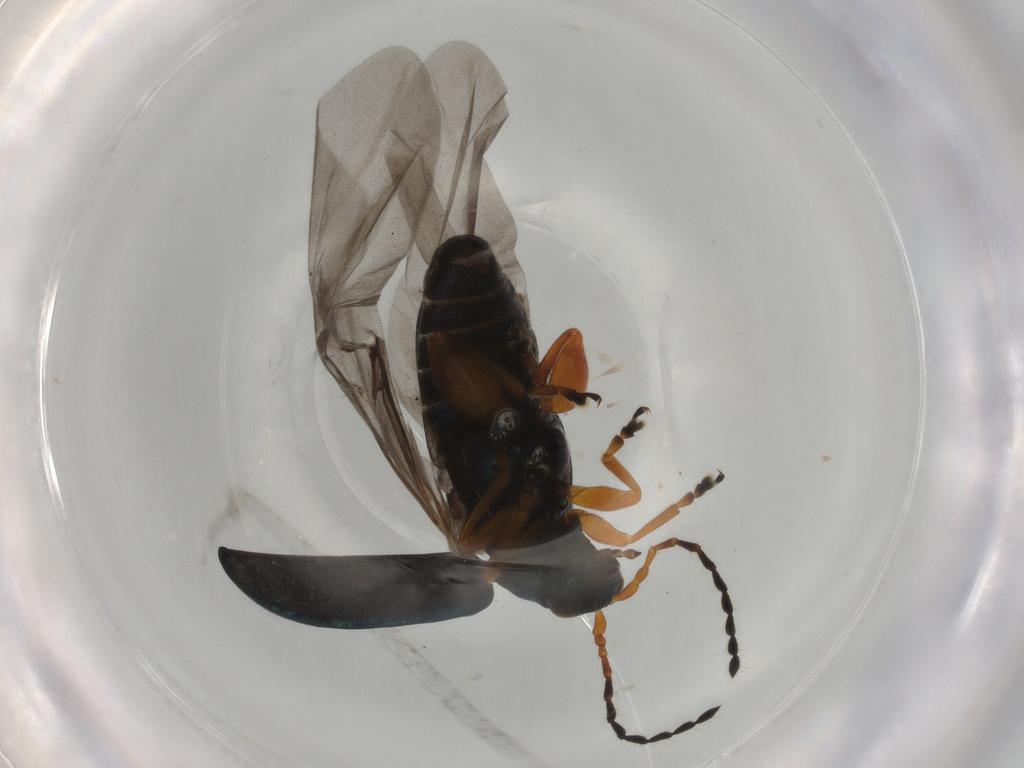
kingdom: Animalia
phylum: Arthropoda
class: Insecta
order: Coleoptera
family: Chrysomelidae
